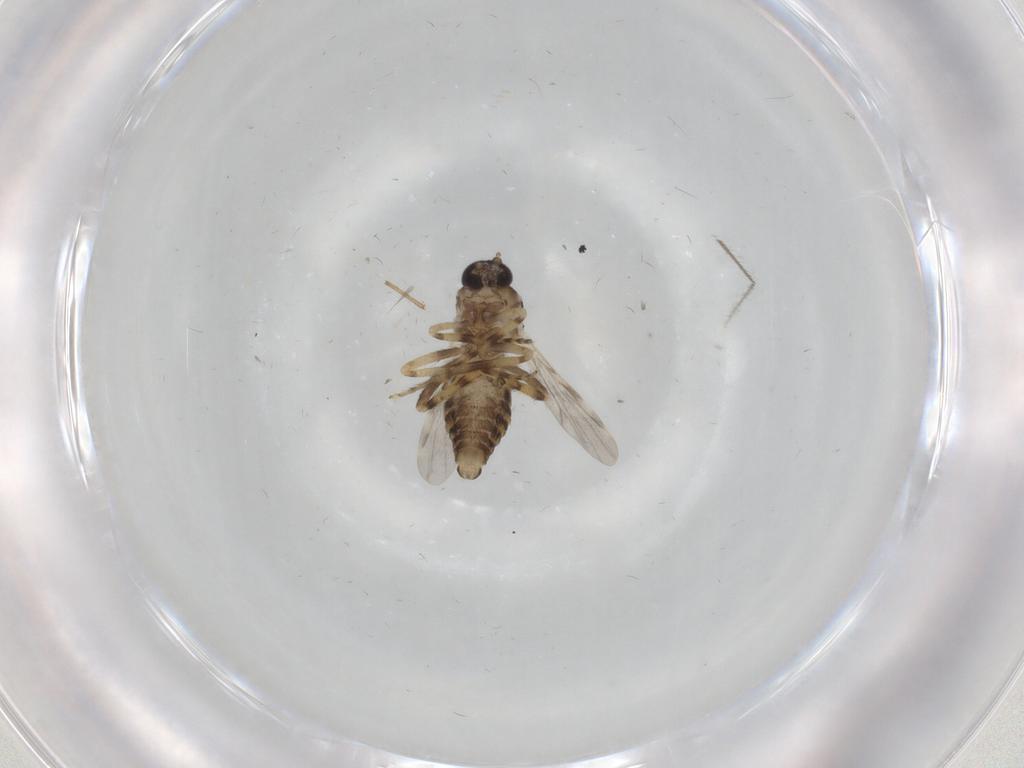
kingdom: Animalia
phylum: Arthropoda
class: Insecta
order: Diptera
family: Ceratopogonidae
